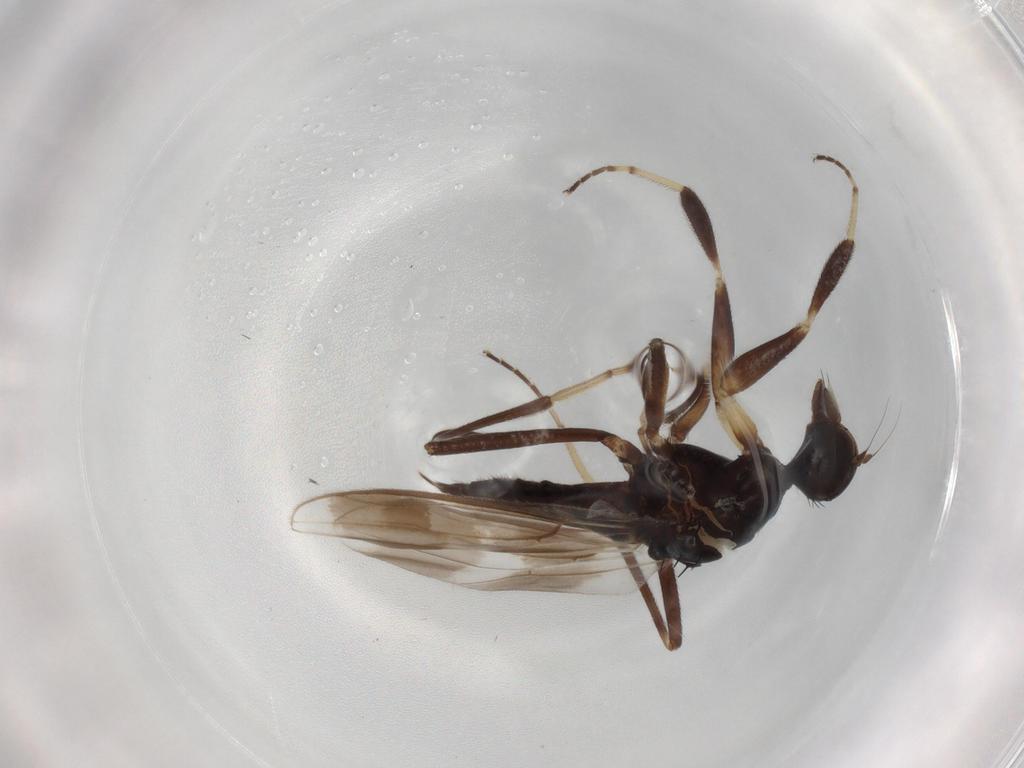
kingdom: Animalia
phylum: Arthropoda
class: Insecta
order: Diptera
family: Hybotidae
